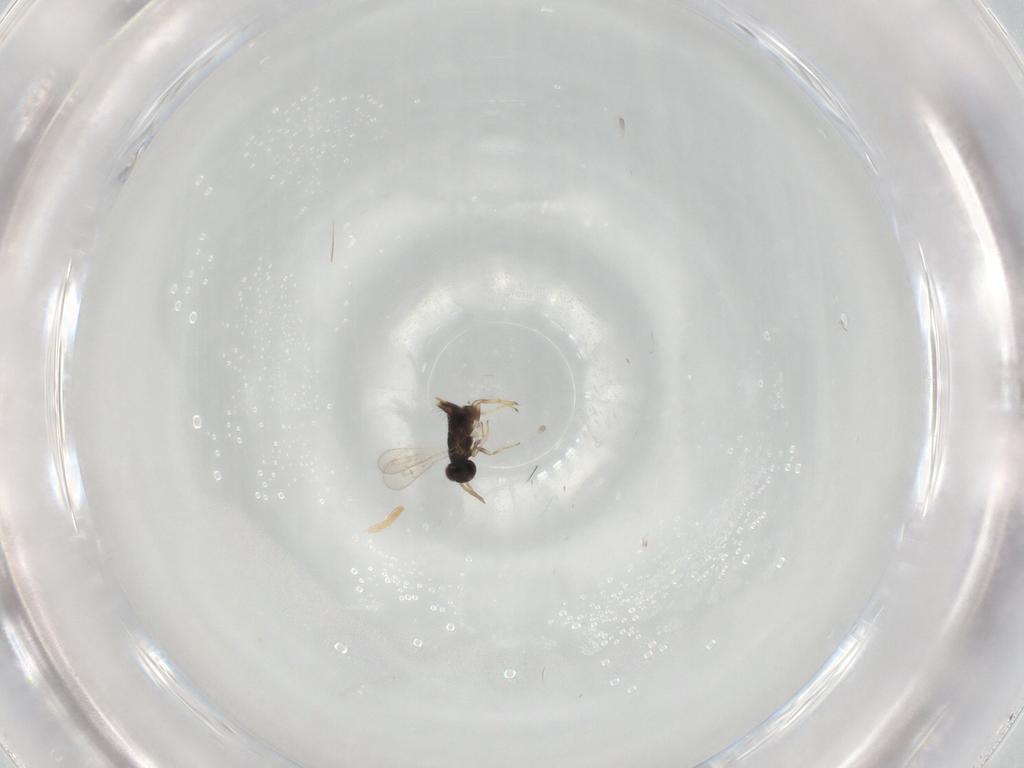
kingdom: Animalia
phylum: Arthropoda
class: Insecta
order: Hymenoptera
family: Aphelinidae
